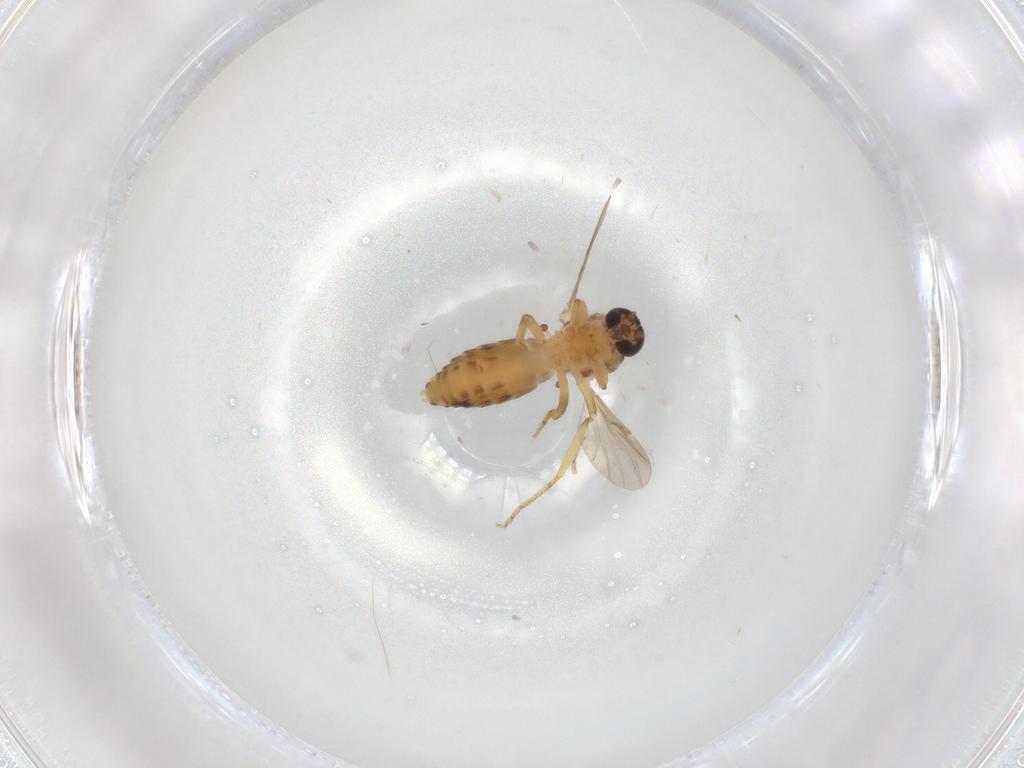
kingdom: Animalia
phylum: Arthropoda
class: Insecta
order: Diptera
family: Sciaridae
